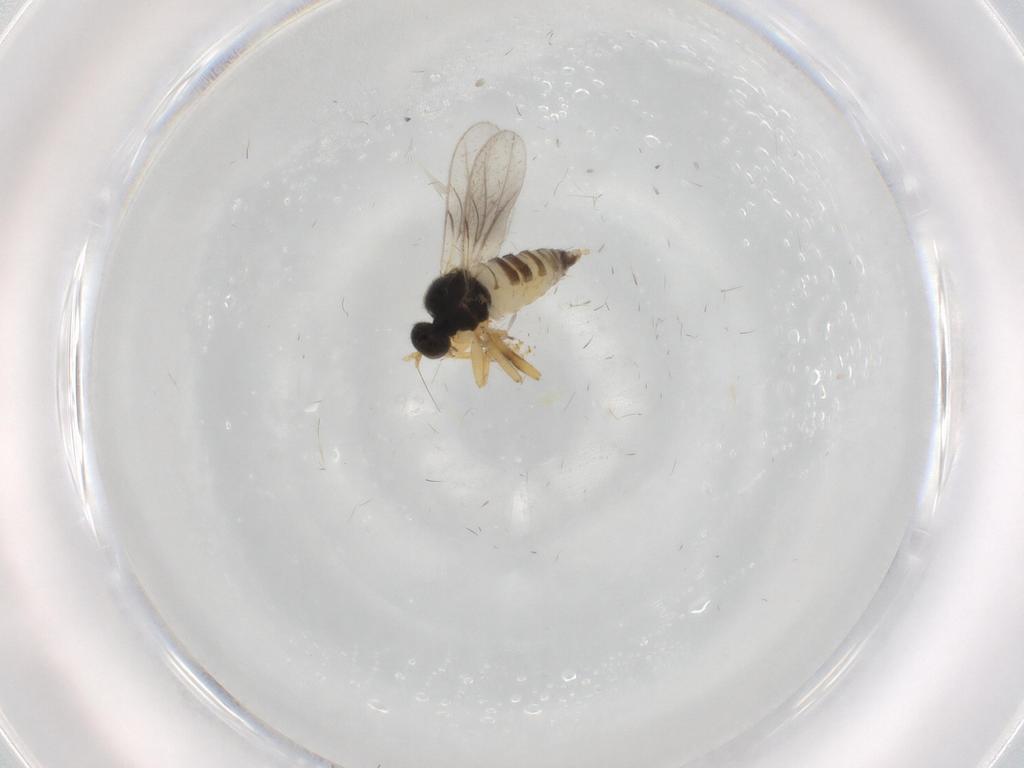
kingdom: Animalia
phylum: Arthropoda
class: Insecta
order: Diptera
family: Hybotidae
